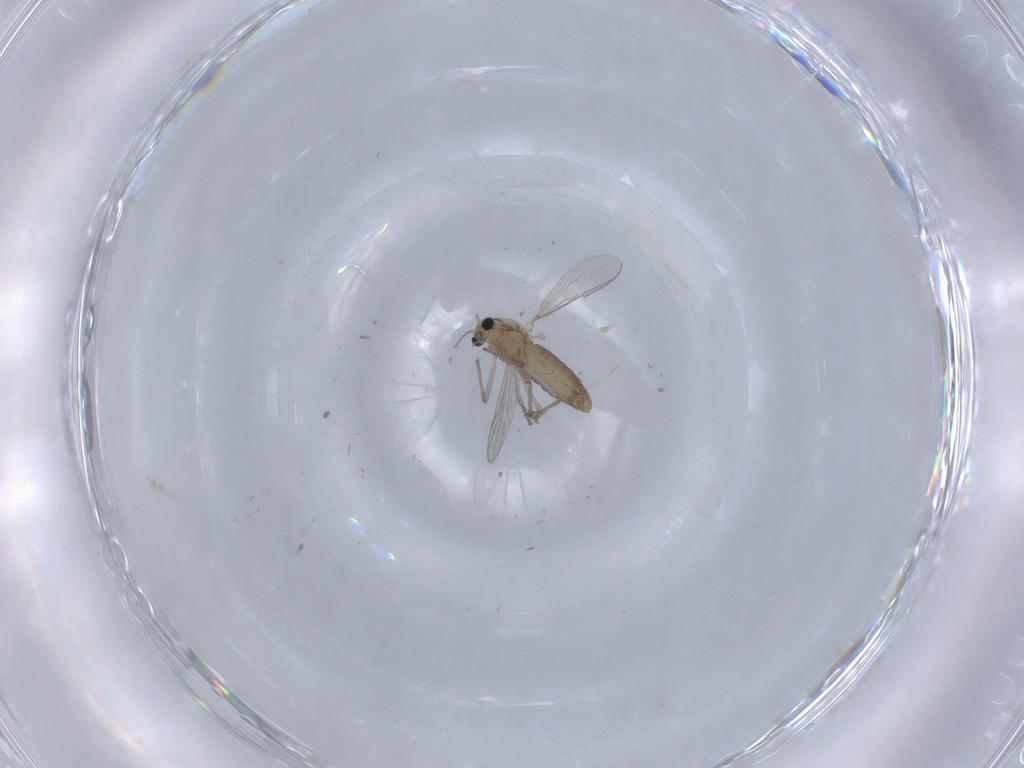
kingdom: Animalia
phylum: Arthropoda
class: Insecta
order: Diptera
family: Chironomidae
